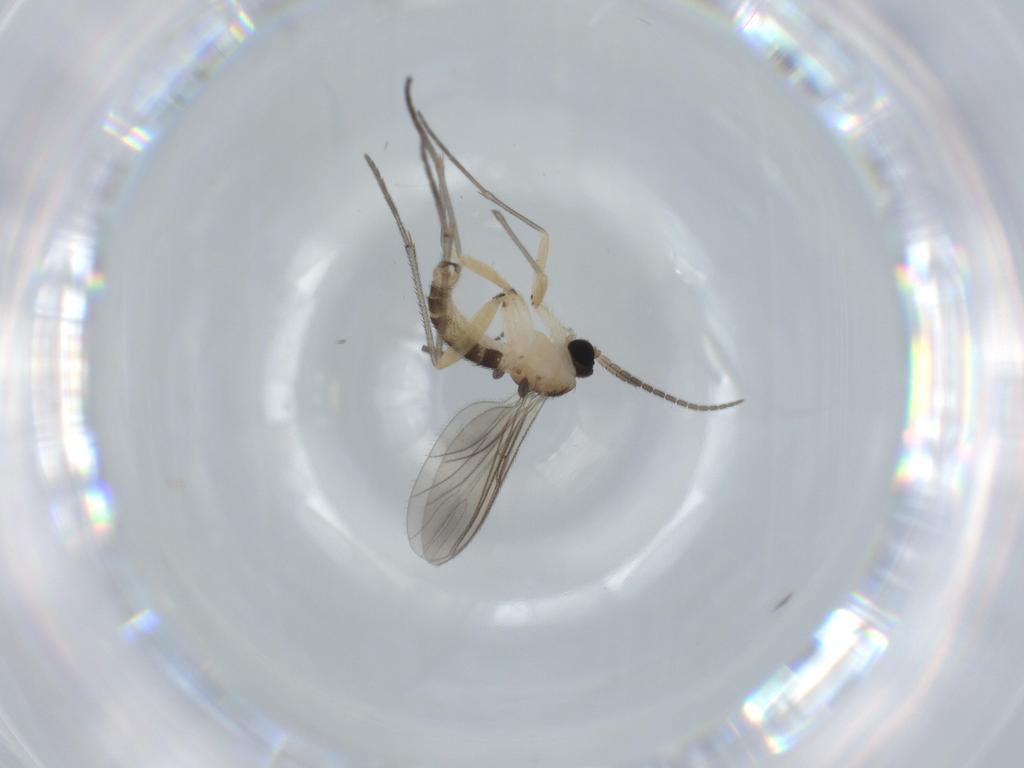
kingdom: Animalia
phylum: Arthropoda
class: Insecta
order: Diptera
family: Sciaridae
